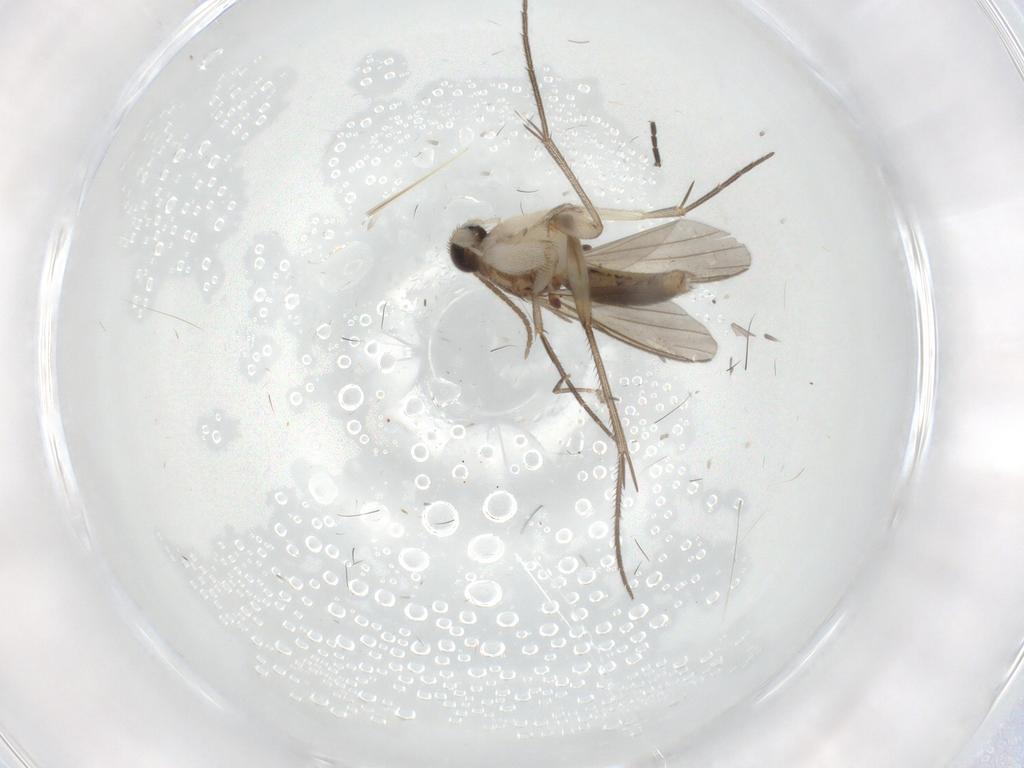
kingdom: Animalia
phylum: Arthropoda
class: Insecta
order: Diptera
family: Mycetophilidae
